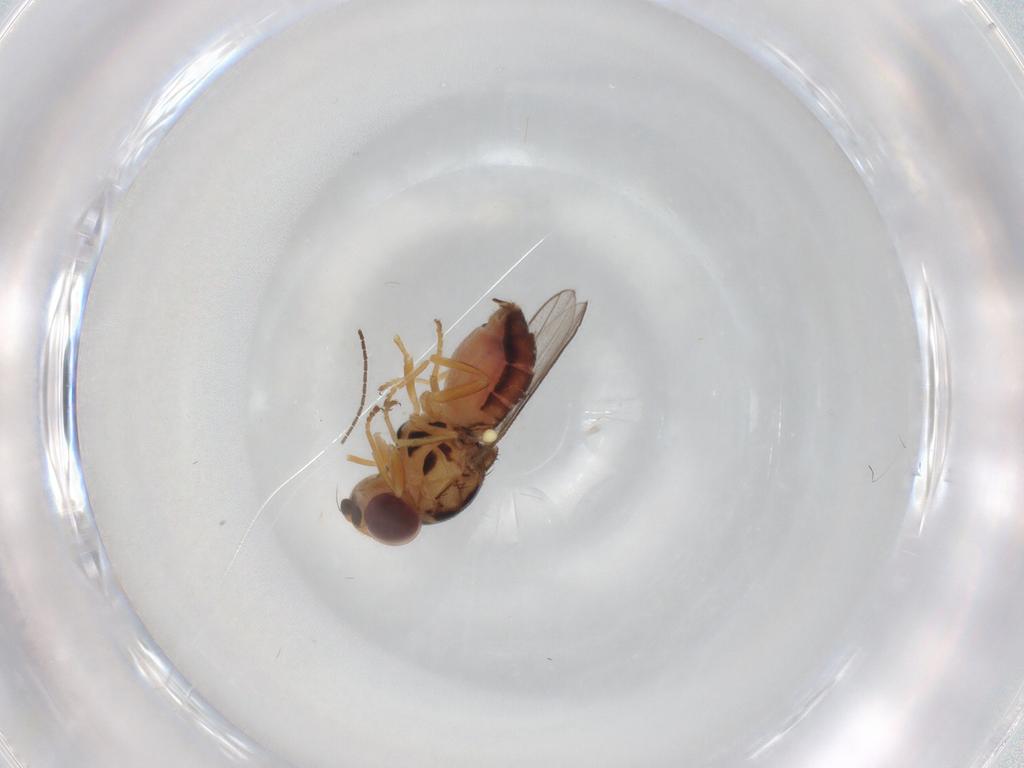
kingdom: Animalia
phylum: Arthropoda
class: Insecta
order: Diptera
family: Sciaridae
